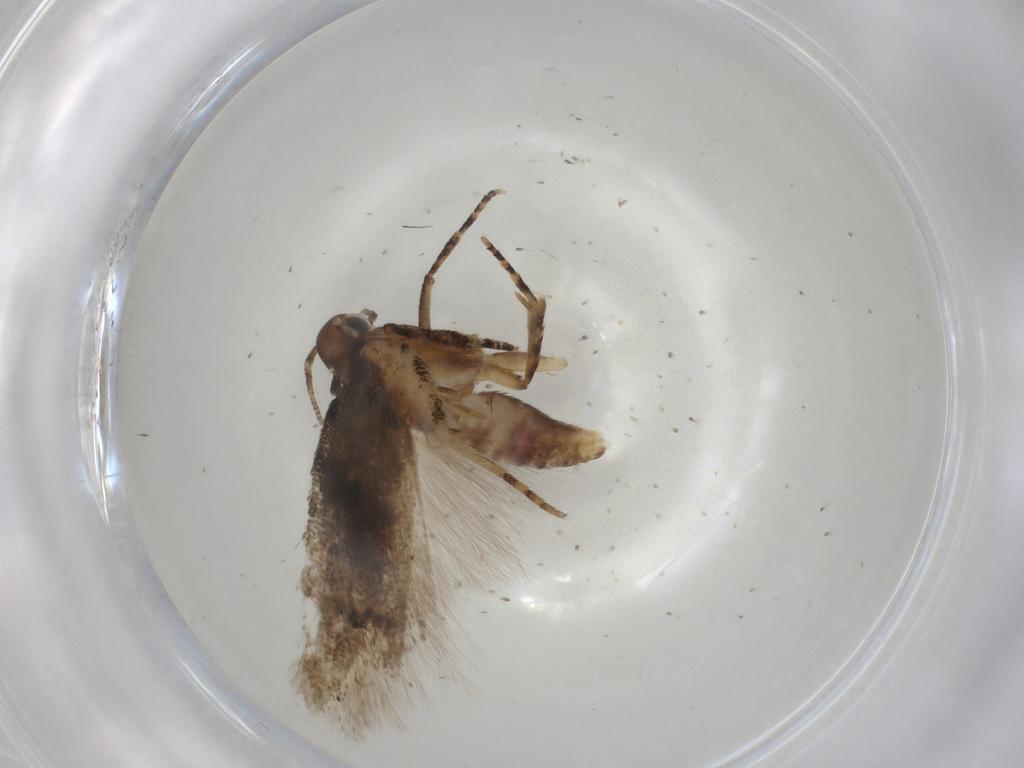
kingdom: Animalia
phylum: Arthropoda
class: Insecta
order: Lepidoptera
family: Gelechiidae
